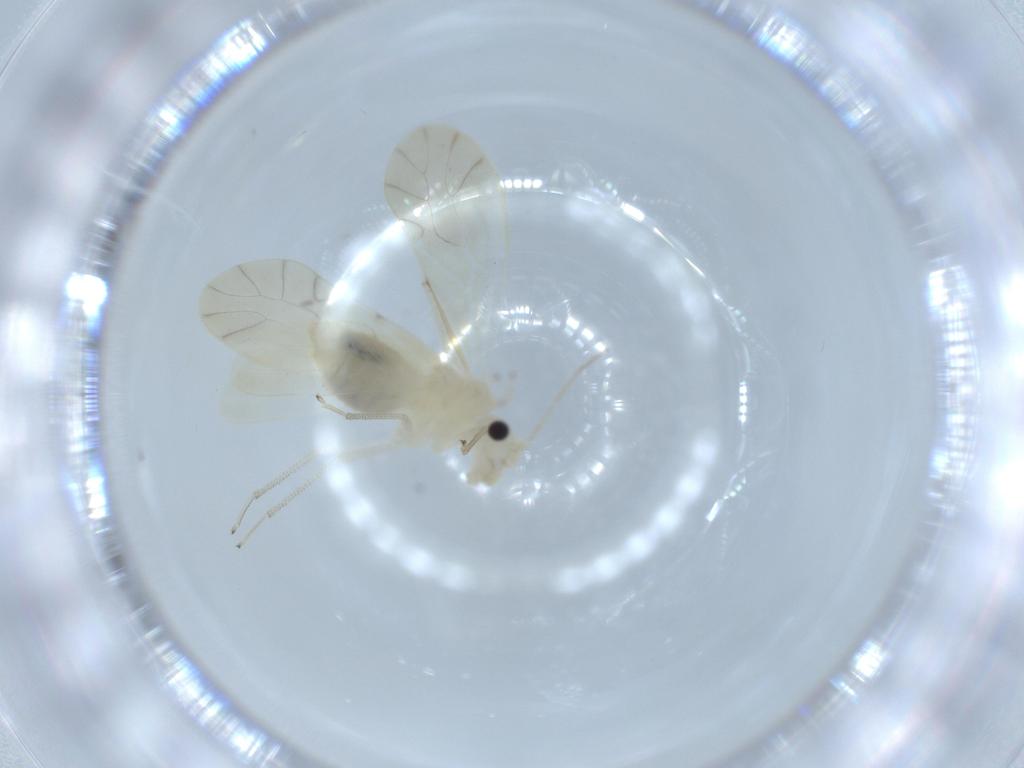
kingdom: Animalia
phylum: Arthropoda
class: Insecta
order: Psocodea
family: Caeciliusidae
